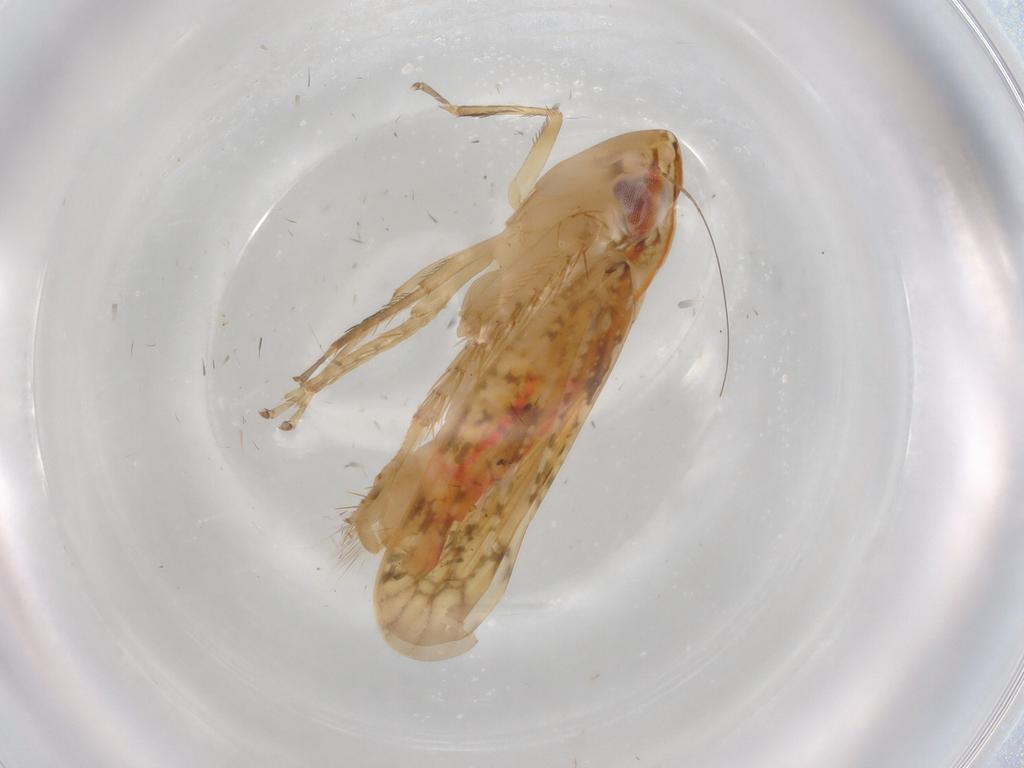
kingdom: Animalia
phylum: Arthropoda
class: Insecta
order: Hemiptera
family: Cicadellidae
